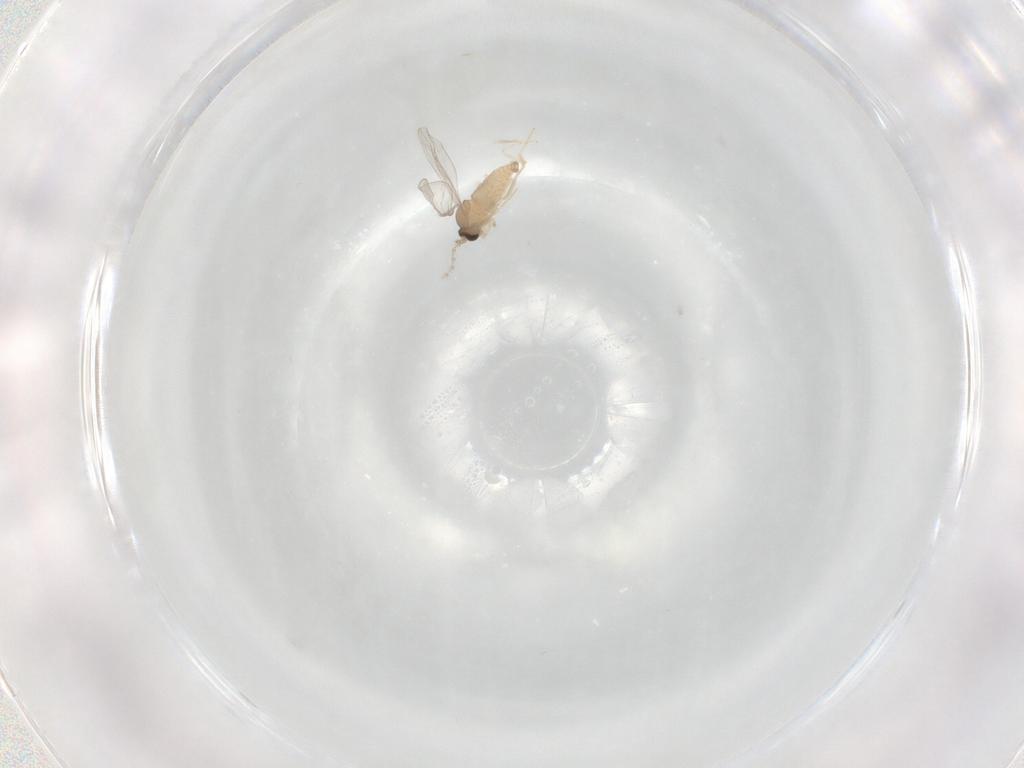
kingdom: Animalia
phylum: Arthropoda
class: Insecta
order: Diptera
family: Phoridae
